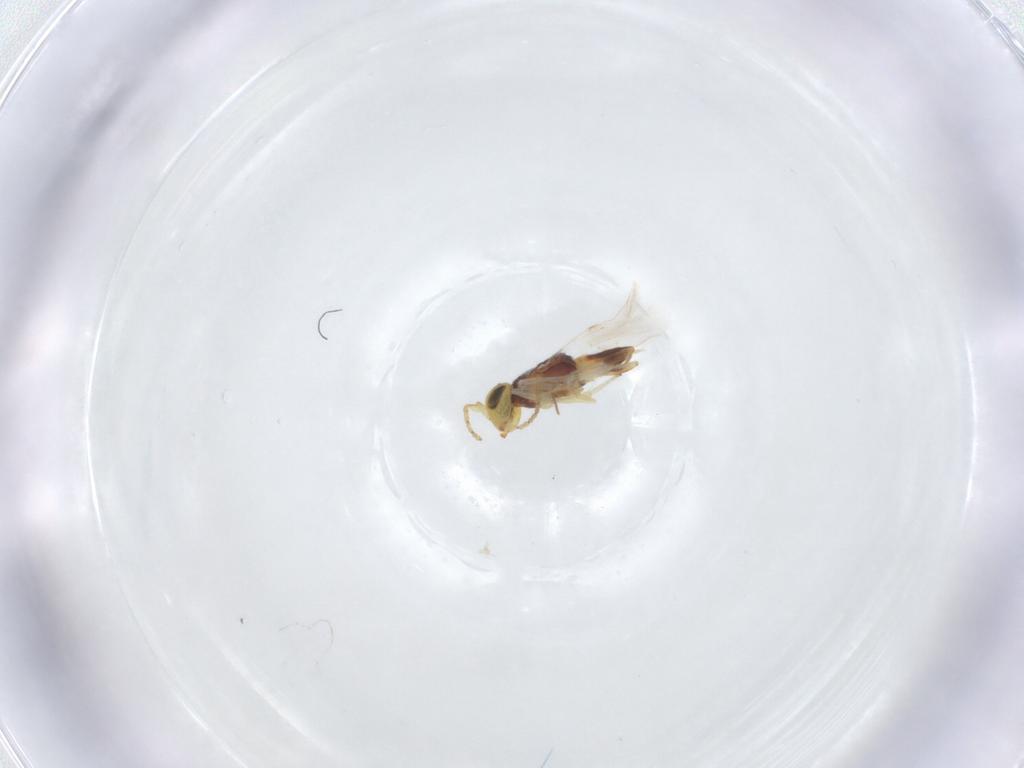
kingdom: Animalia
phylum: Arthropoda
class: Insecta
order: Hymenoptera
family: Encyrtidae
